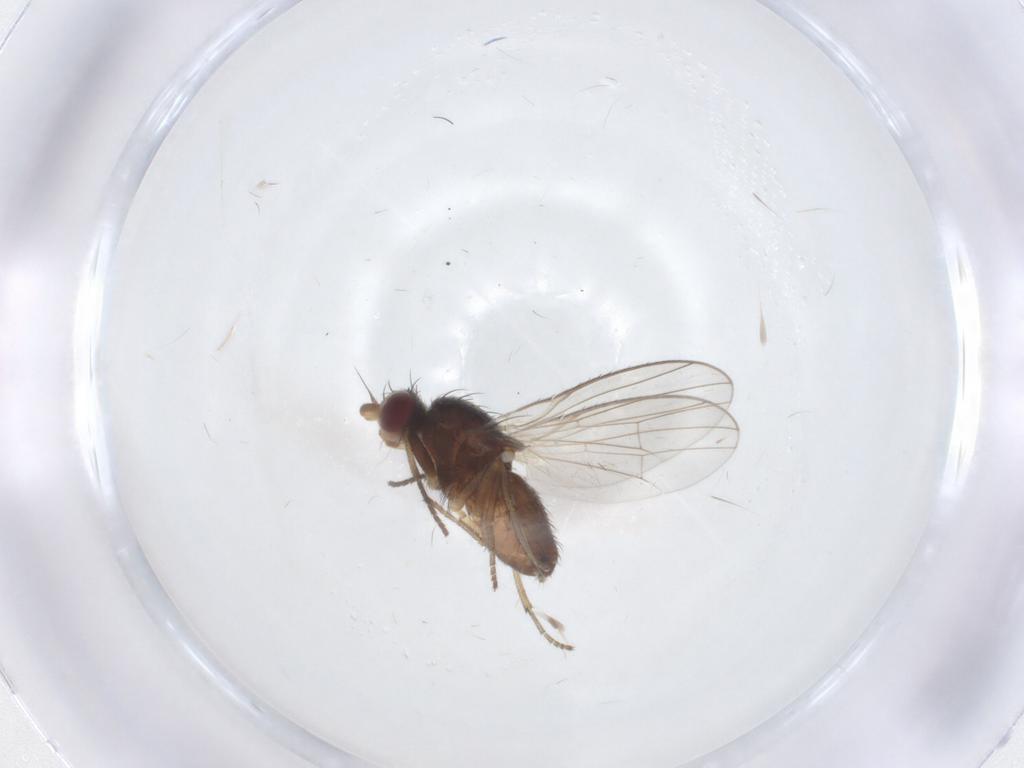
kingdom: Animalia
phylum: Arthropoda
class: Insecta
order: Diptera
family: Hybotidae
